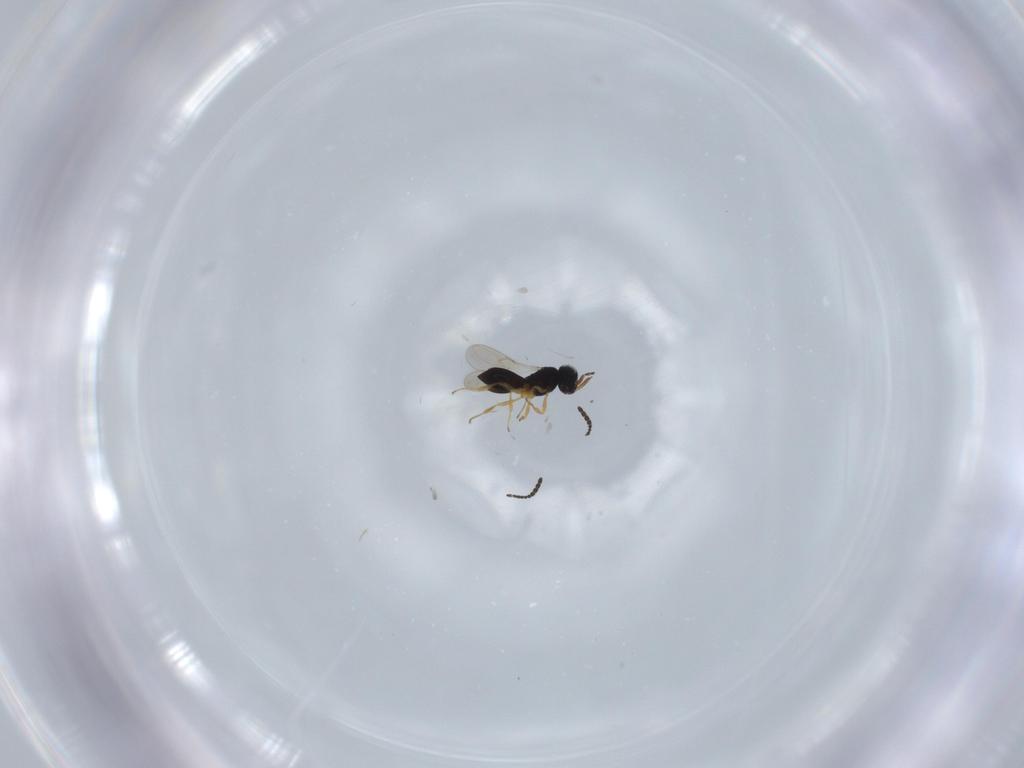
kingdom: Animalia
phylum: Arthropoda
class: Insecta
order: Hymenoptera
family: Scelionidae
